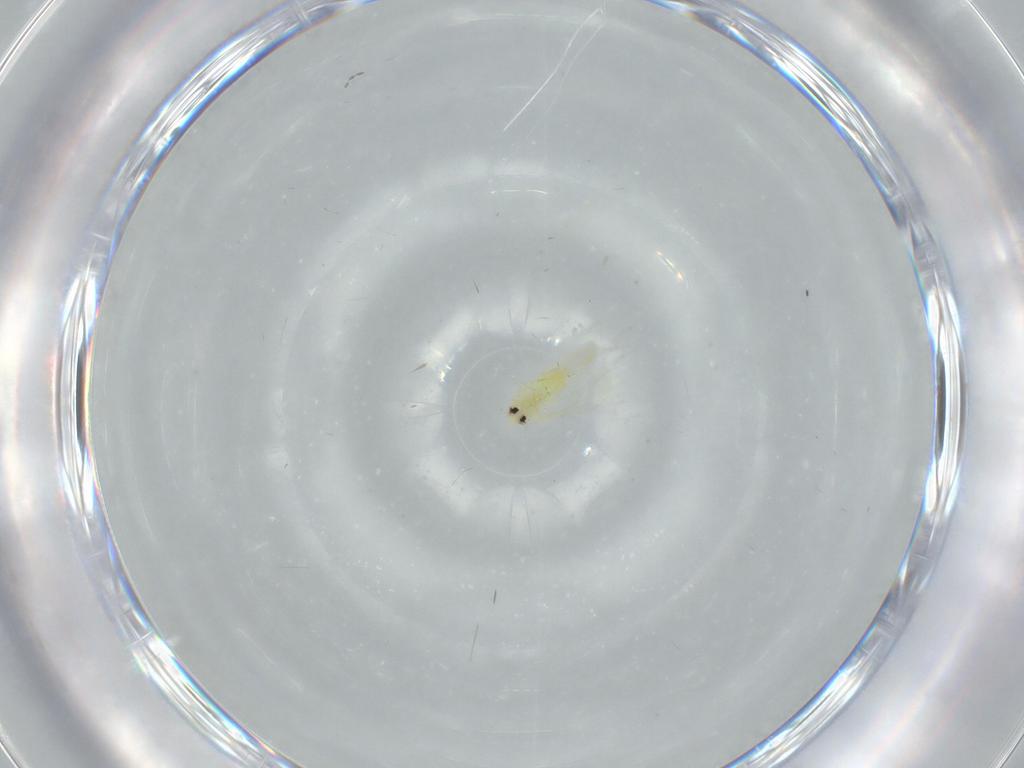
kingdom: Animalia
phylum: Arthropoda
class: Insecta
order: Hemiptera
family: Aleyrodidae
